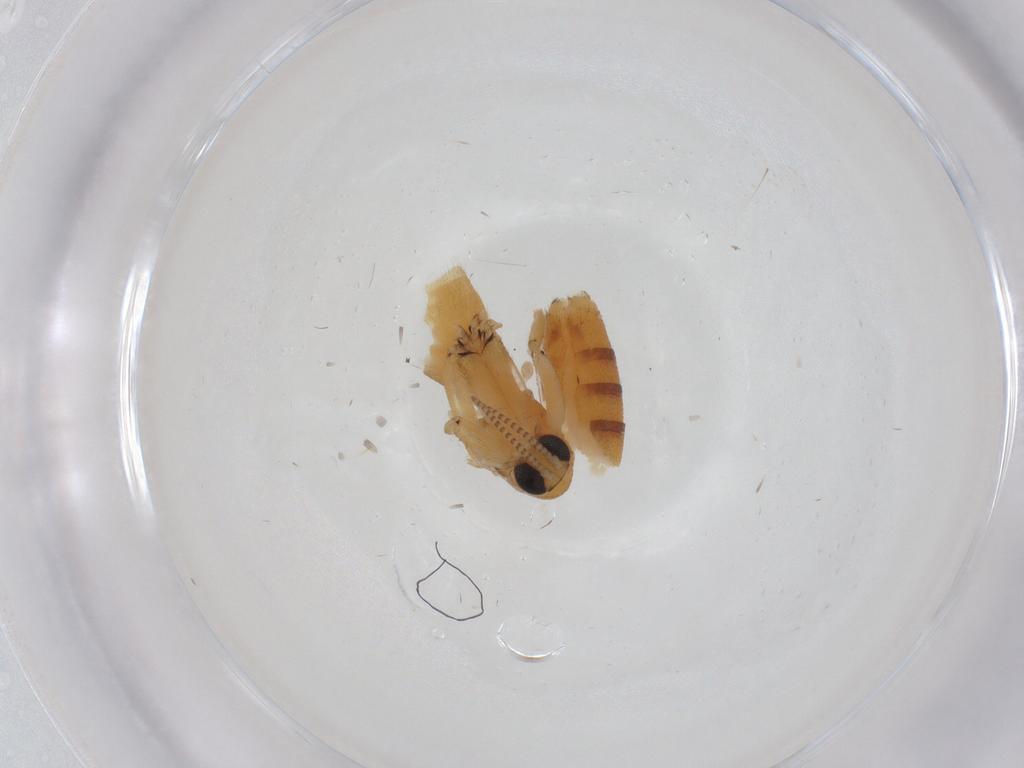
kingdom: Animalia
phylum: Arthropoda
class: Insecta
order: Diptera
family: Mycetophilidae
